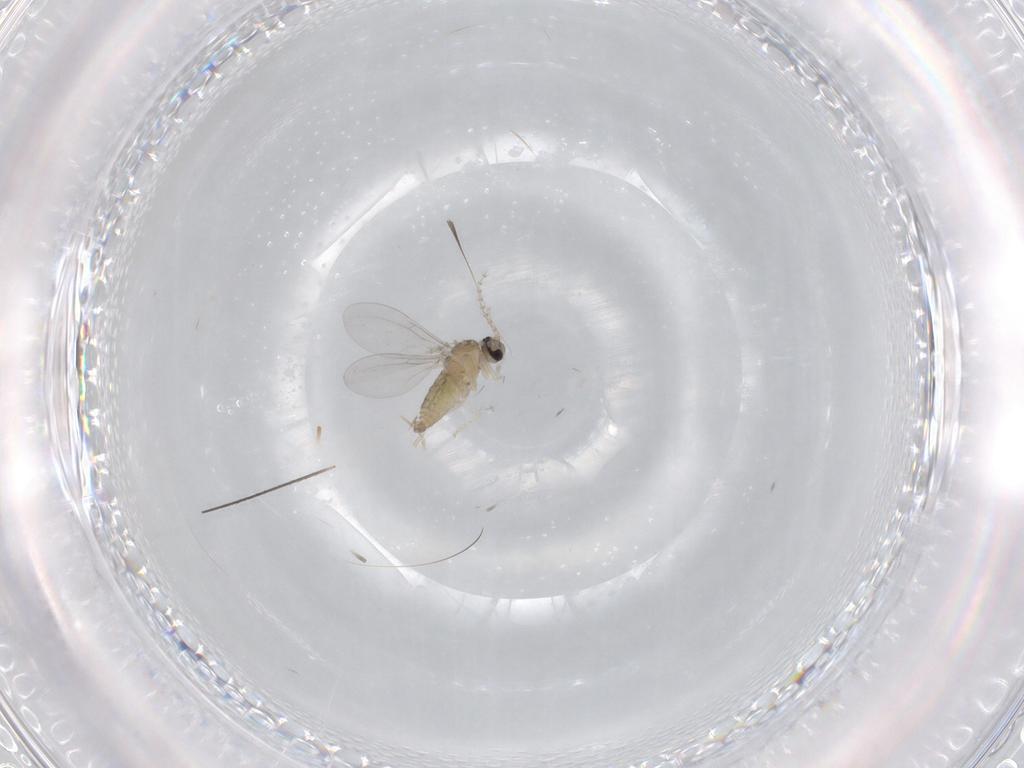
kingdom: Animalia
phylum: Arthropoda
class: Insecta
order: Diptera
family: Cecidomyiidae
